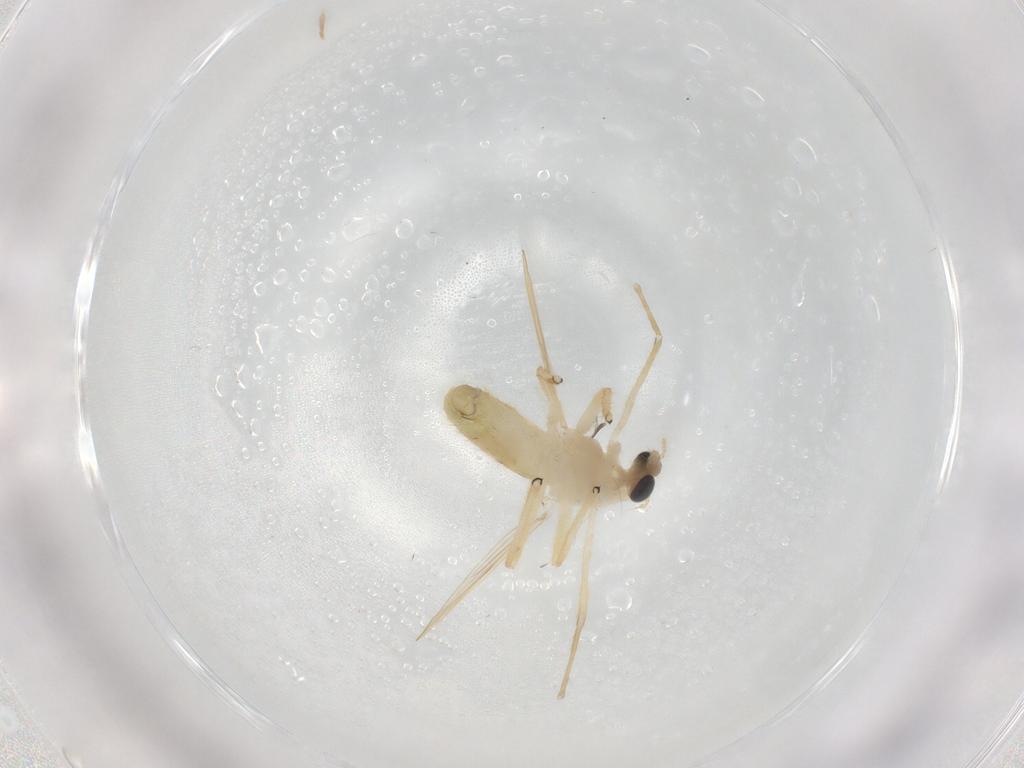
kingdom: Animalia
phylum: Arthropoda
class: Insecta
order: Diptera
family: Chironomidae
